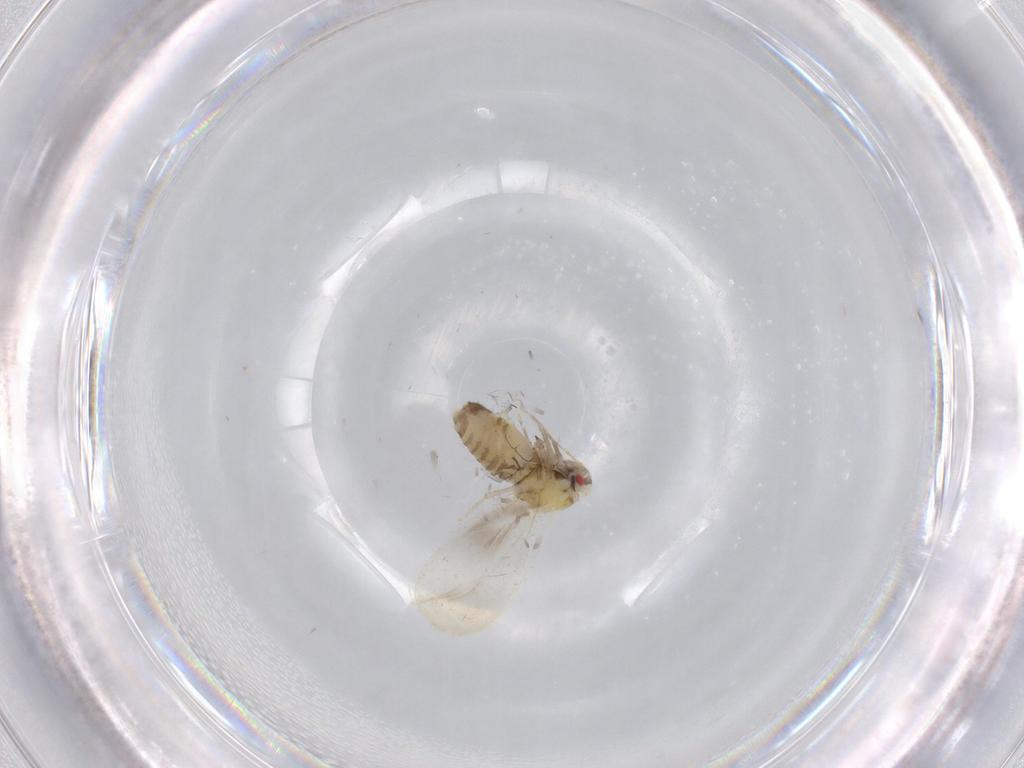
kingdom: Animalia
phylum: Arthropoda
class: Insecta
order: Hemiptera
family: Aleyrodidae
